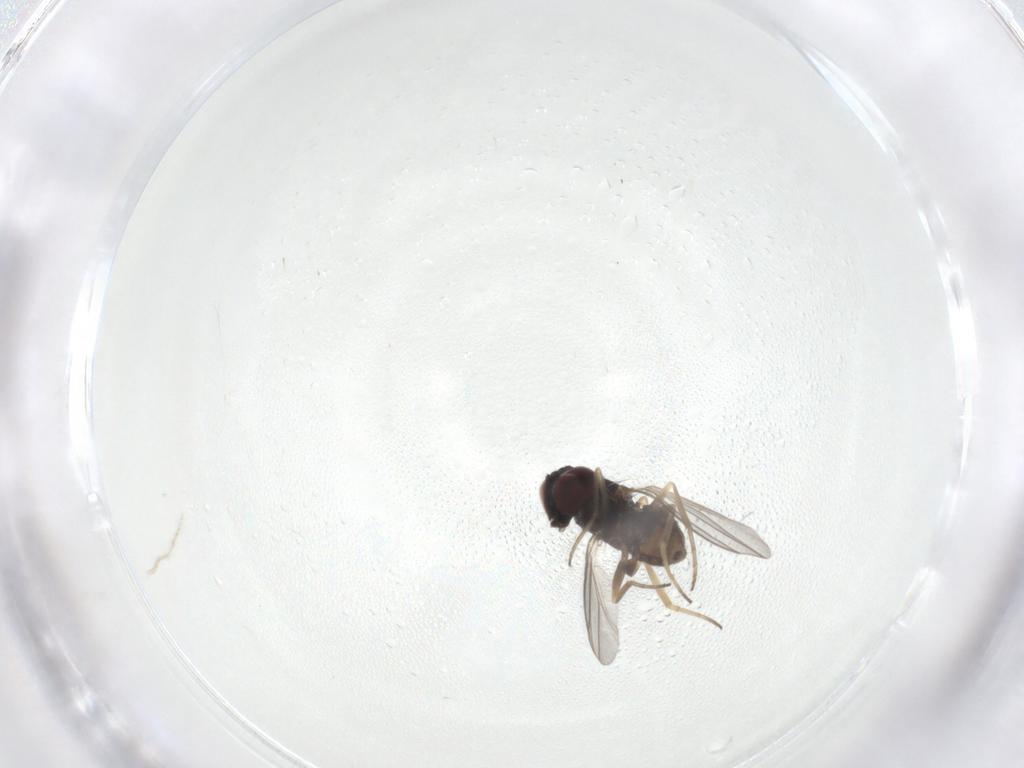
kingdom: Animalia
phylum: Arthropoda
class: Insecta
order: Diptera
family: Dolichopodidae
